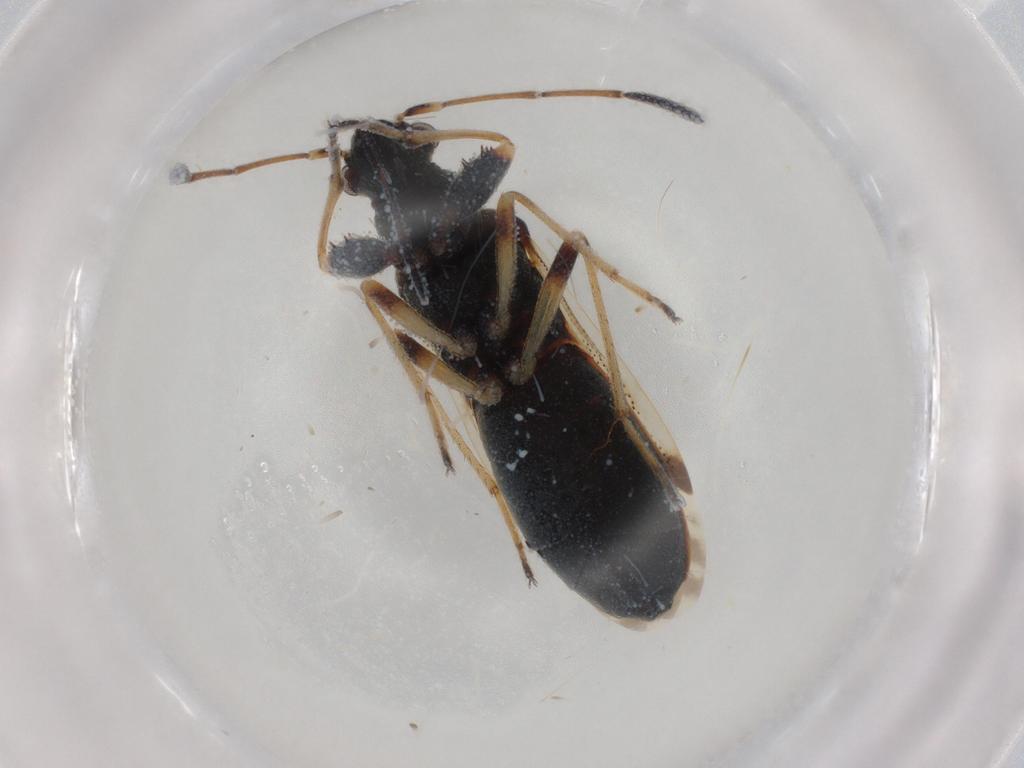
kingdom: Animalia
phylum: Arthropoda
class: Insecta
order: Hemiptera
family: Rhyparochromidae
